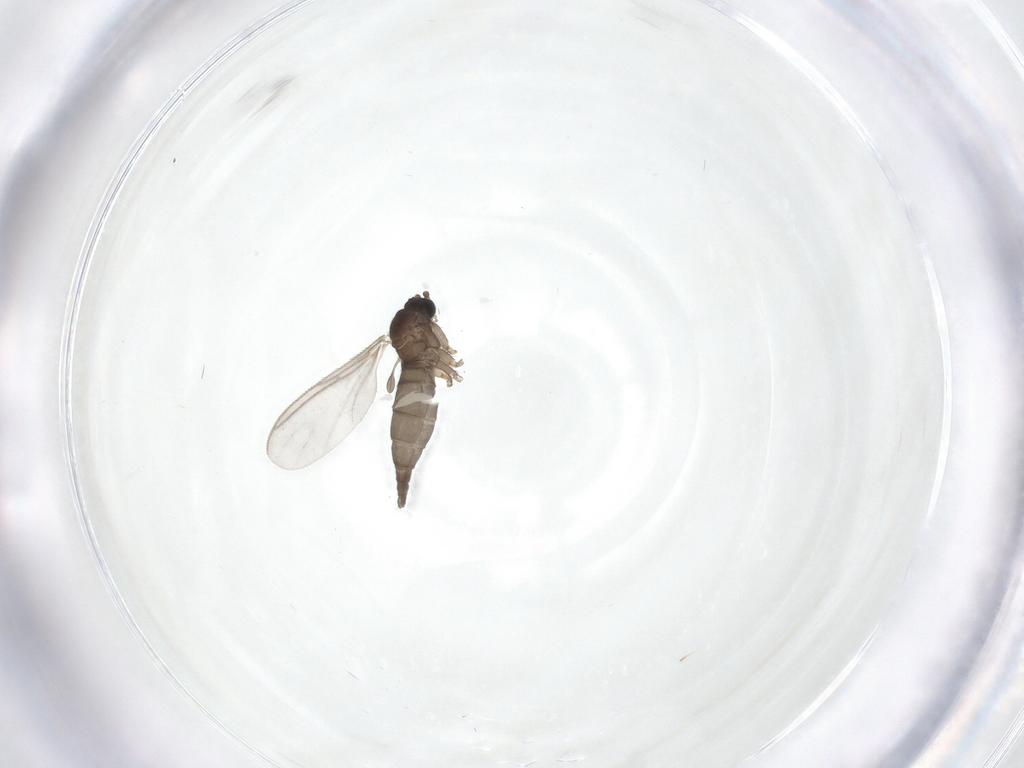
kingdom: Animalia
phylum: Arthropoda
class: Insecta
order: Diptera
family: Sciaridae
